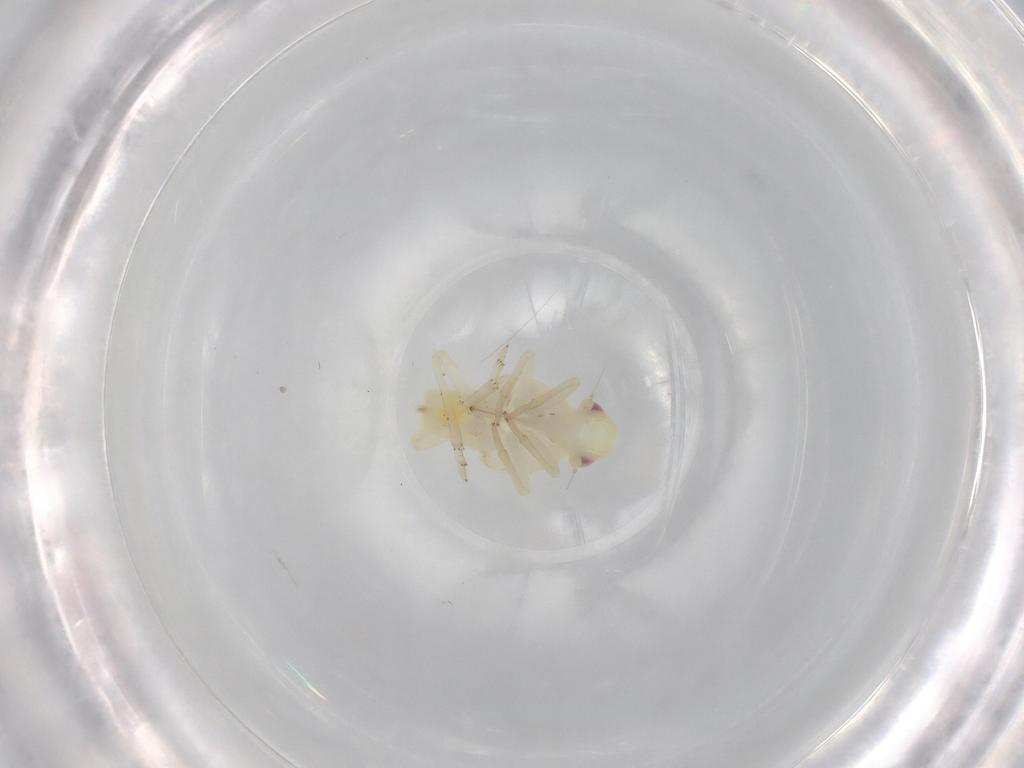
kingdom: Animalia
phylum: Arthropoda
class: Insecta
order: Hemiptera
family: Tropiduchidae
